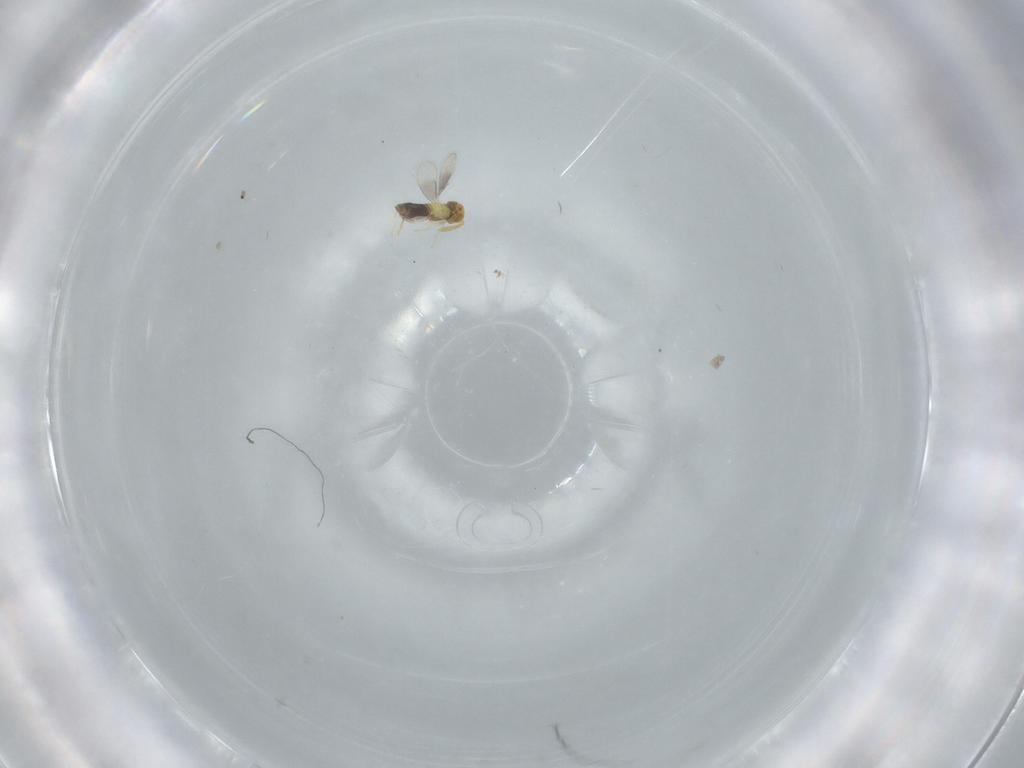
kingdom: Animalia
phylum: Arthropoda
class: Insecta
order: Hymenoptera
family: Aphelinidae
